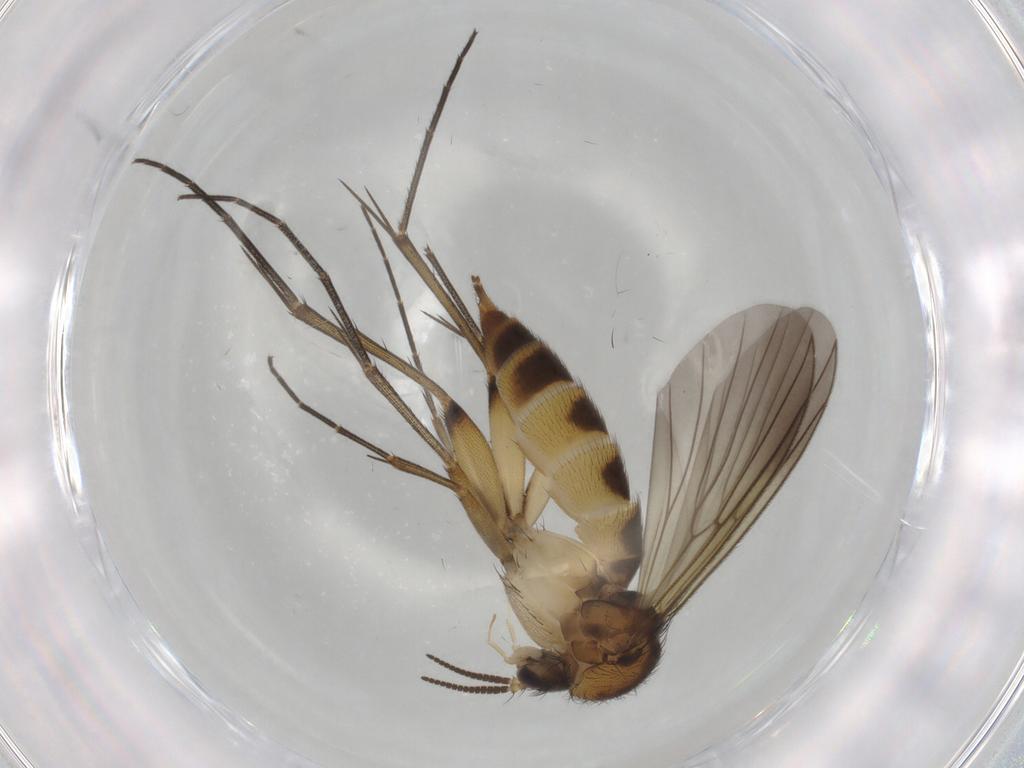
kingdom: Animalia
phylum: Arthropoda
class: Insecta
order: Diptera
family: Mycetophilidae
